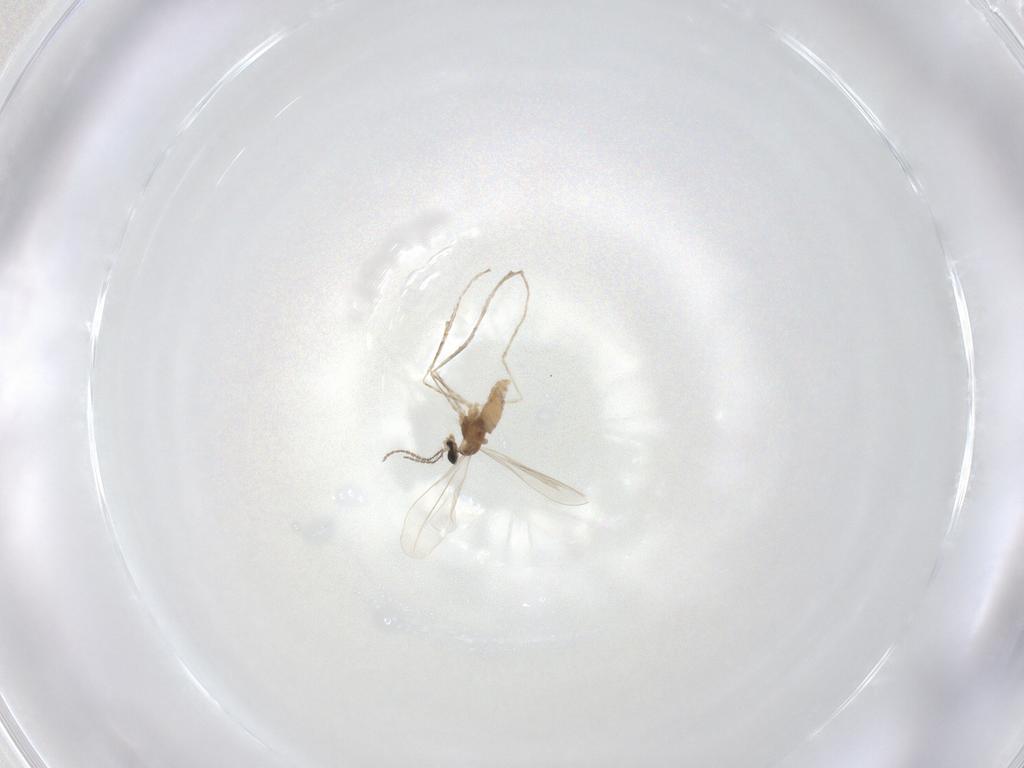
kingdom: Animalia
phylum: Arthropoda
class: Insecta
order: Diptera
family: Cecidomyiidae
